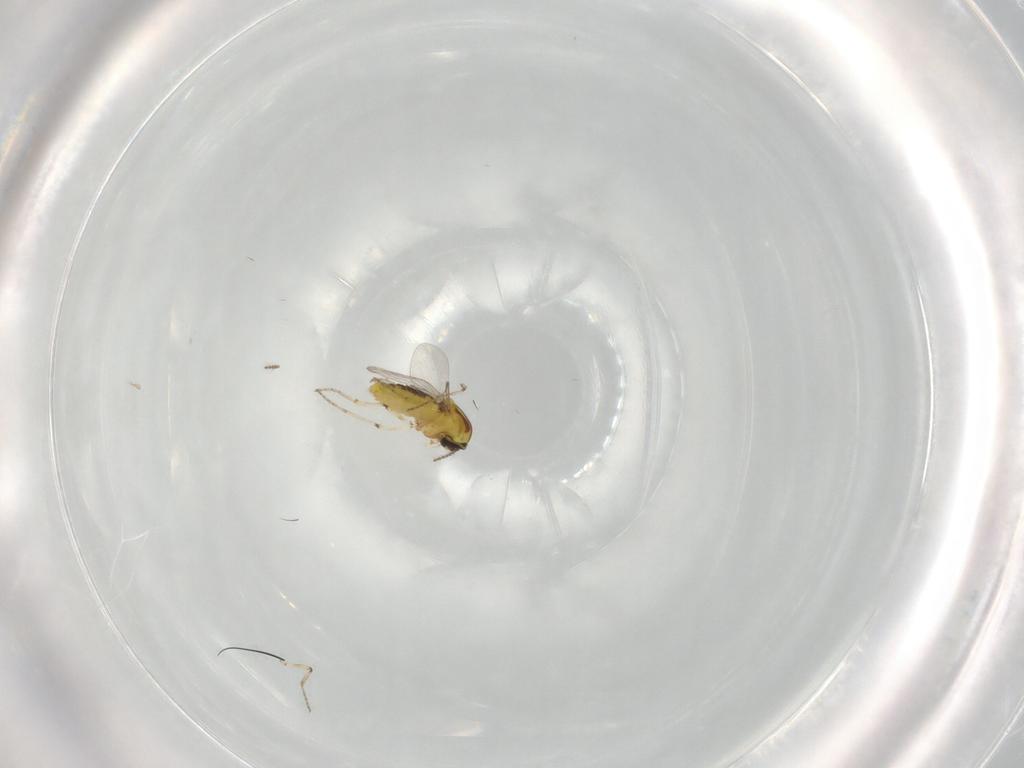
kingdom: Animalia
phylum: Arthropoda
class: Insecta
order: Diptera
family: Ceratopogonidae
